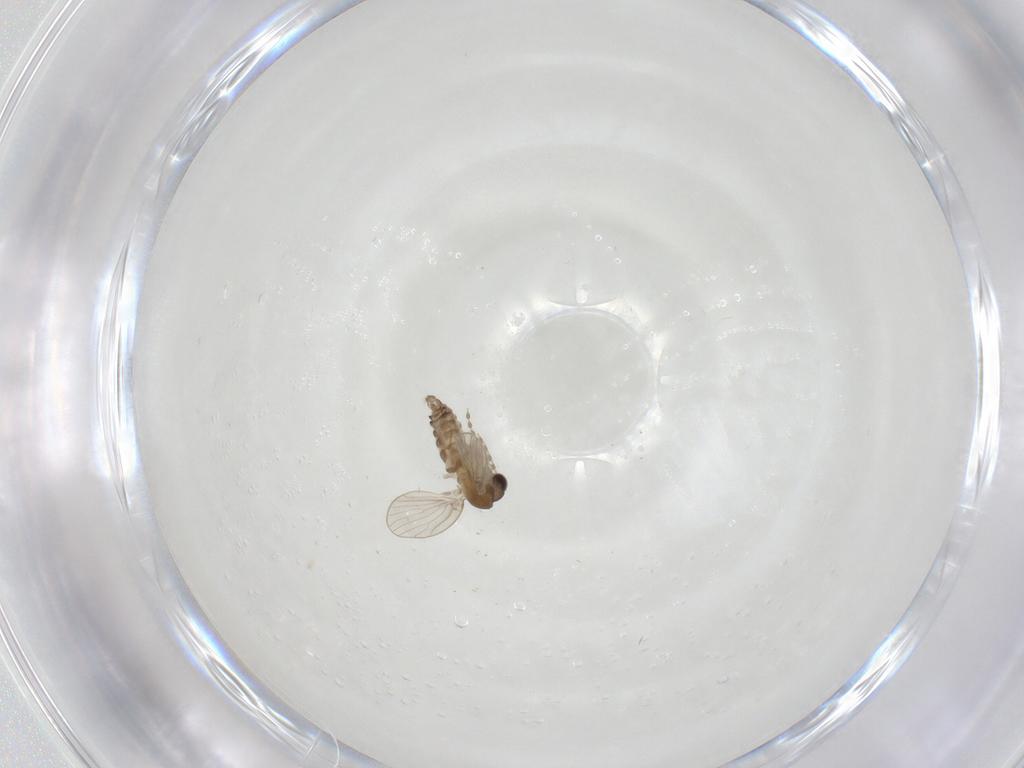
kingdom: Animalia
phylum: Arthropoda
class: Insecta
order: Diptera
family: Psychodidae
